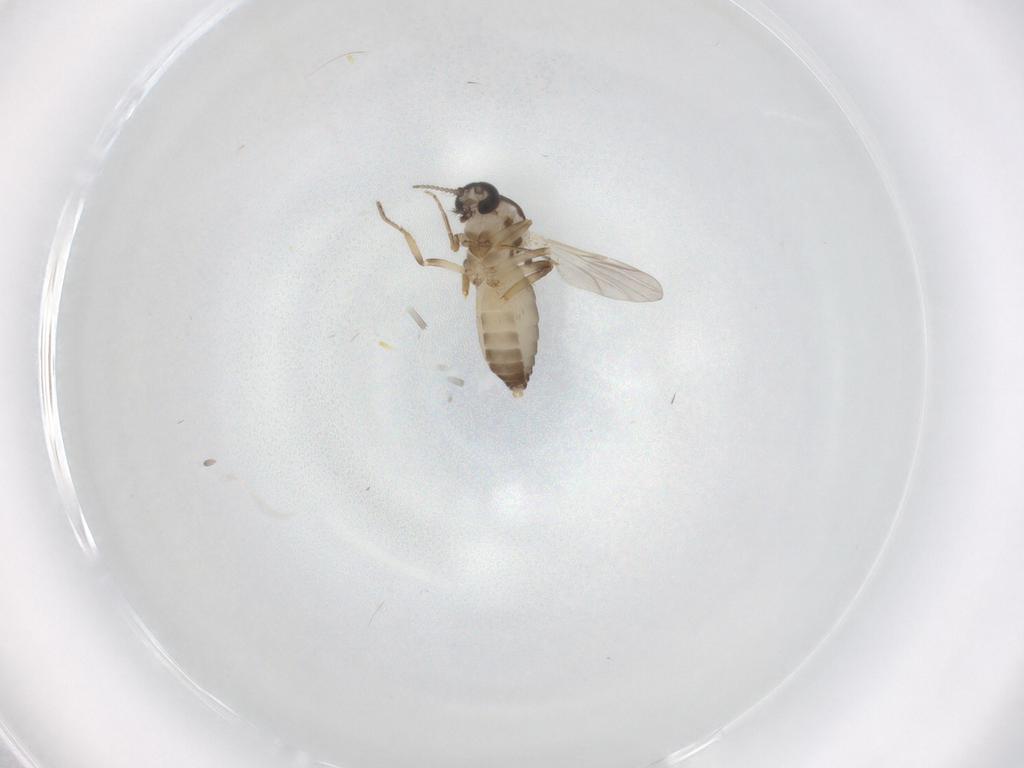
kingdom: Animalia
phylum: Arthropoda
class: Insecta
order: Diptera
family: Ceratopogonidae
